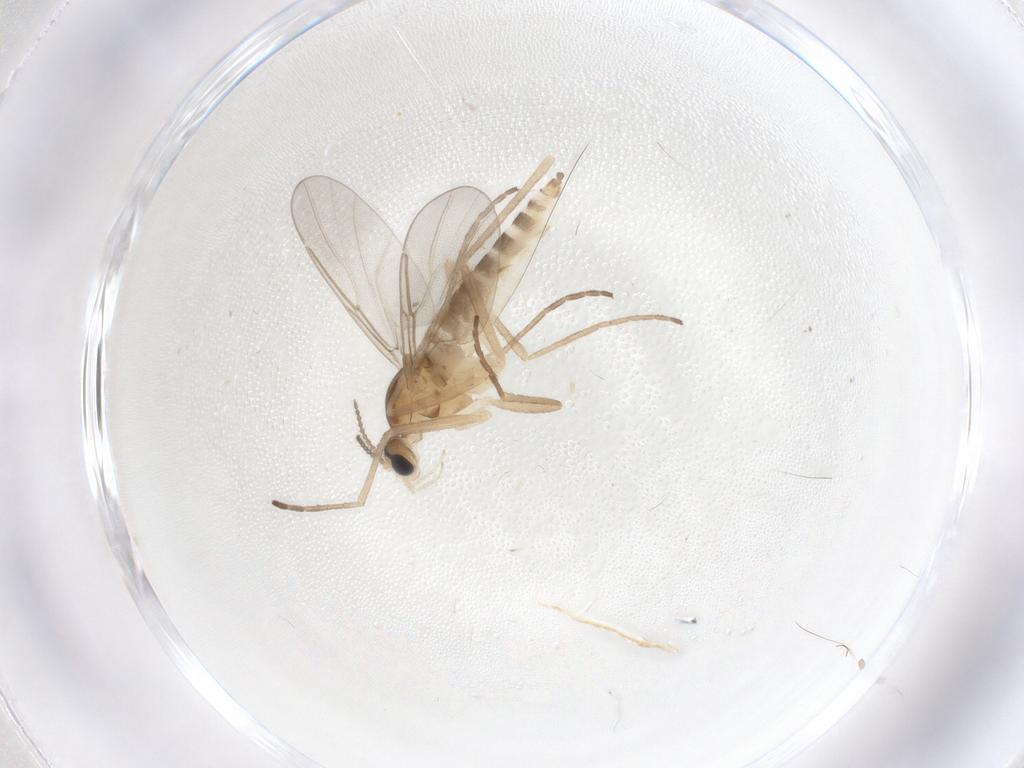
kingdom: Animalia
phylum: Arthropoda
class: Insecta
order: Diptera
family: Cecidomyiidae
